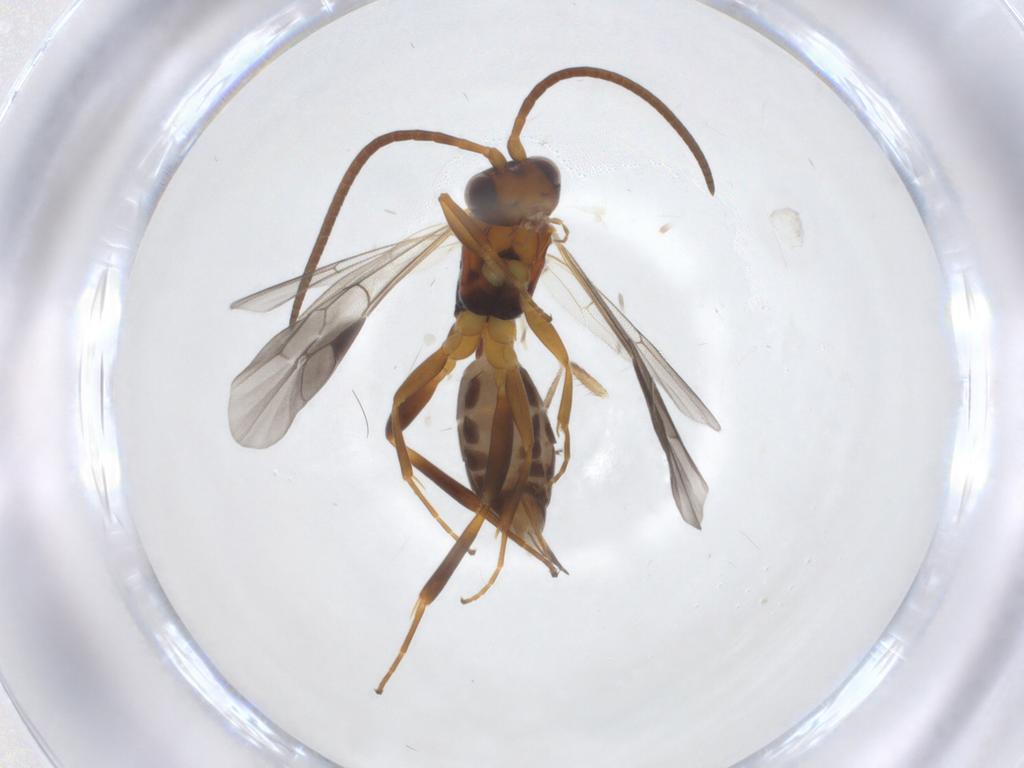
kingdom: Animalia
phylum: Arthropoda
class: Insecta
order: Hymenoptera
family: Ichneumonidae
